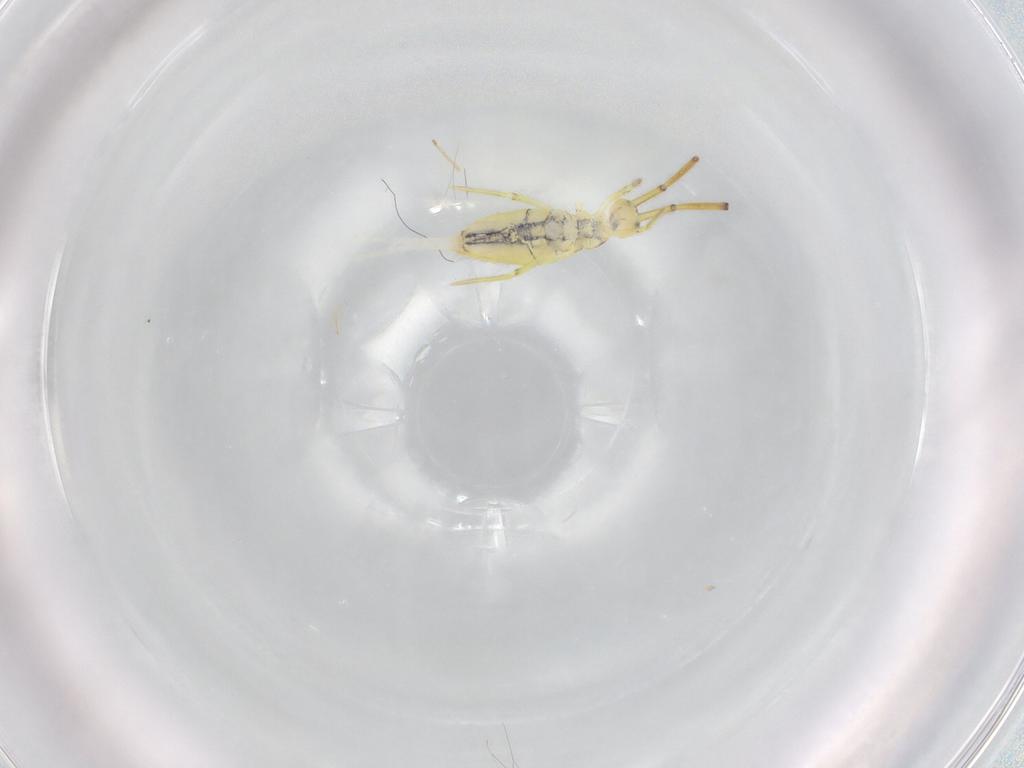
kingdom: Animalia
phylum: Arthropoda
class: Collembola
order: Entomobryomorpha
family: Entomobryidae
